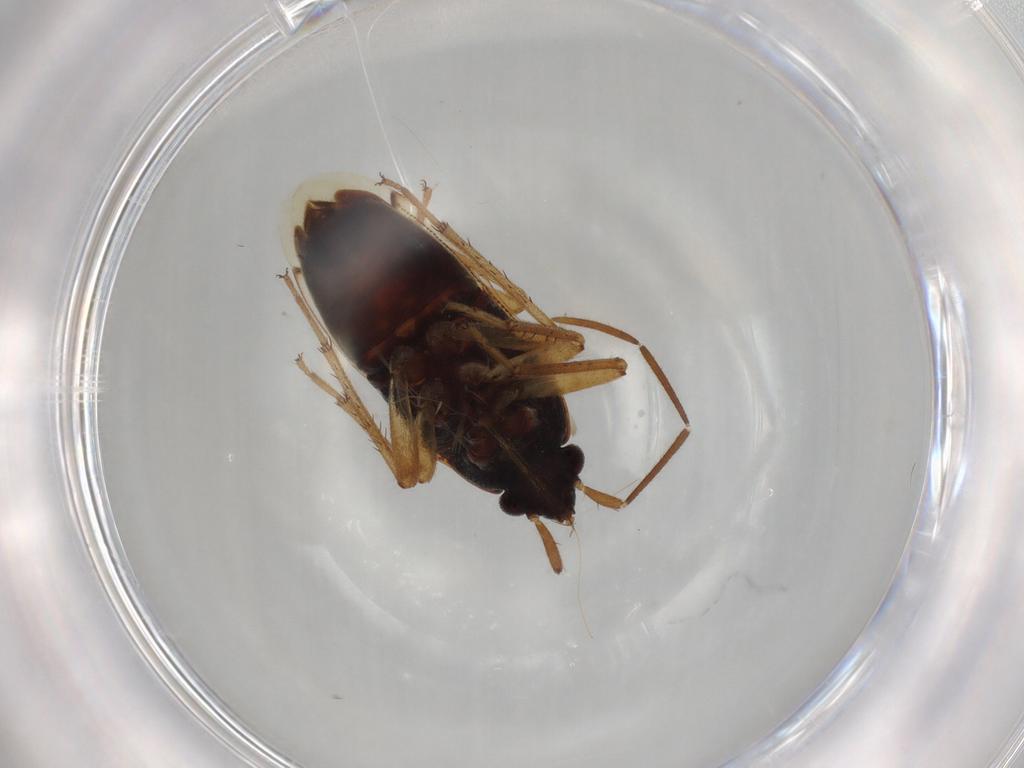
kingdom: Animalia
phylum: Arthropoda
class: Insecta
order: Hemiptera
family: Rhyparochromidae
